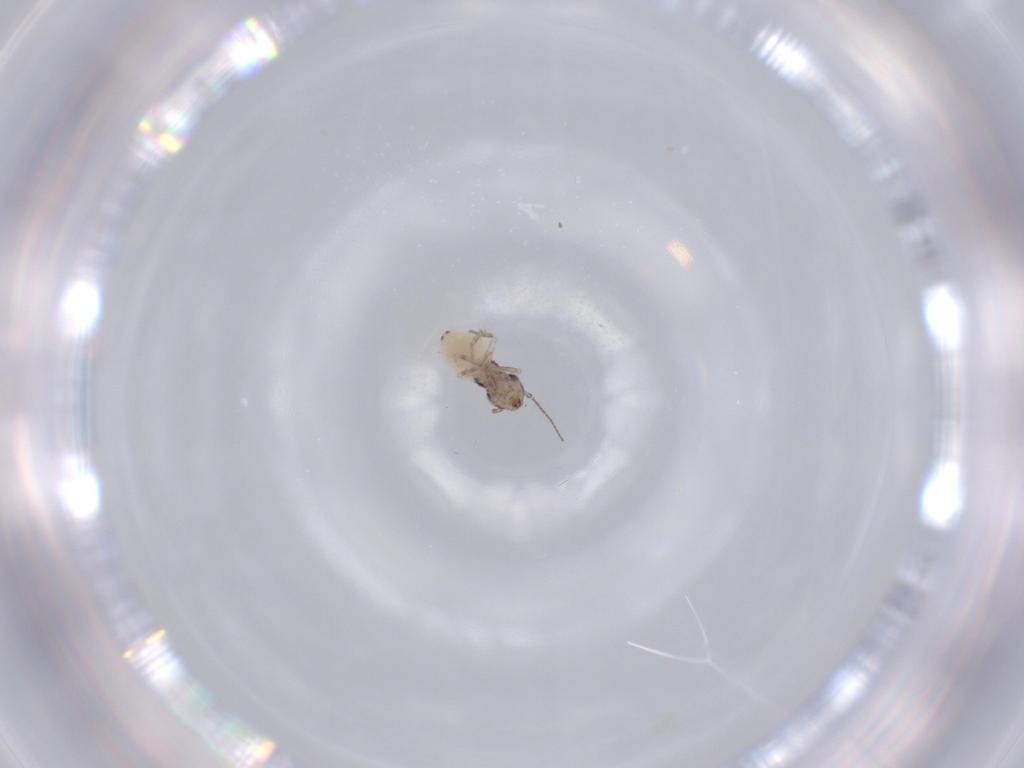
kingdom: Animalia
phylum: Arthropoda
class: Insecta
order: Psocodea
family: Lepidopsocidae
